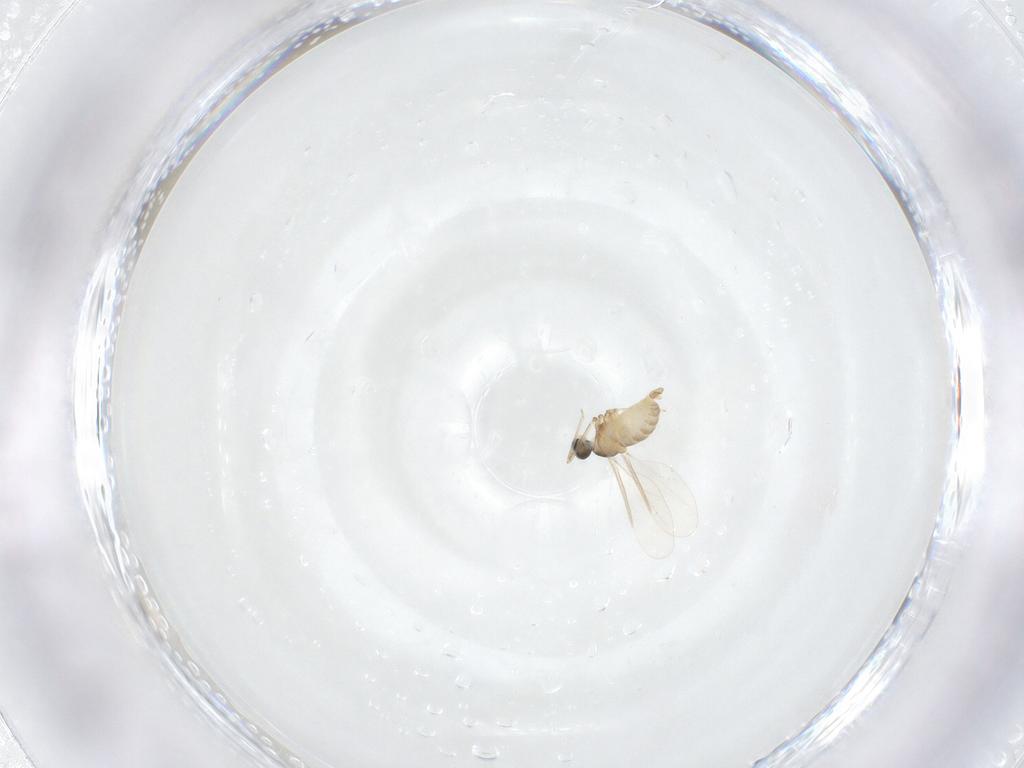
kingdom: Animalia
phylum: Arthropoda
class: Insecta
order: Diptera
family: Cecidomyiidae
